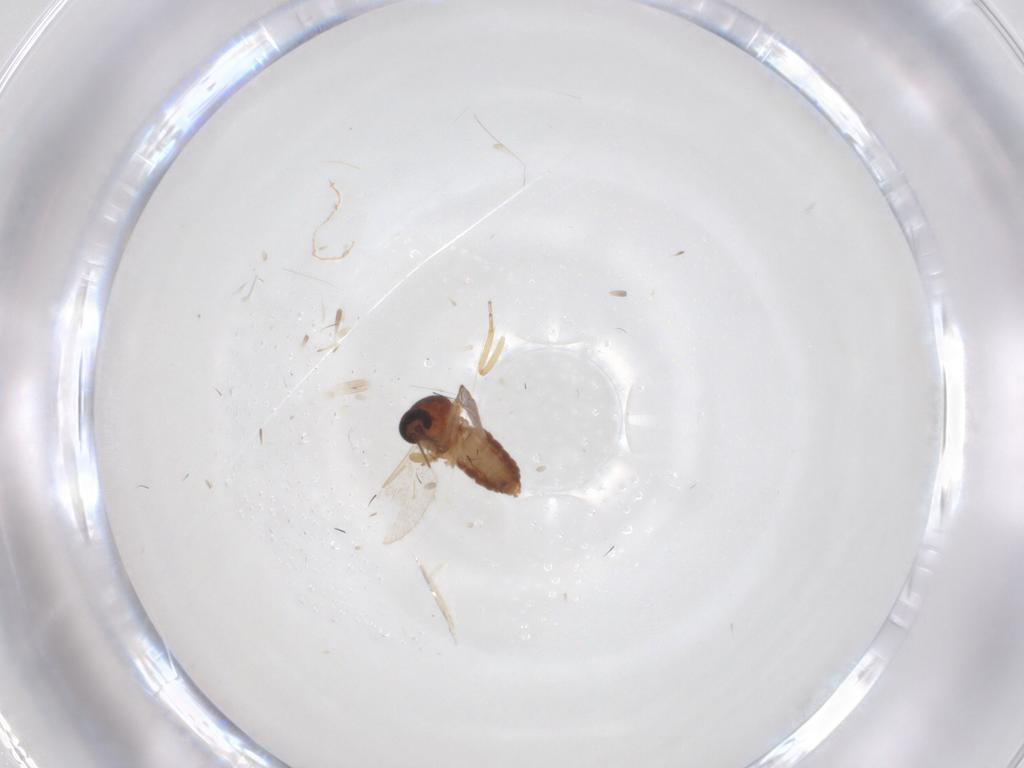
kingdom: Animalia
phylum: Arthropoda
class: Insecta
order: Diptera
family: Ceratopogonidae
